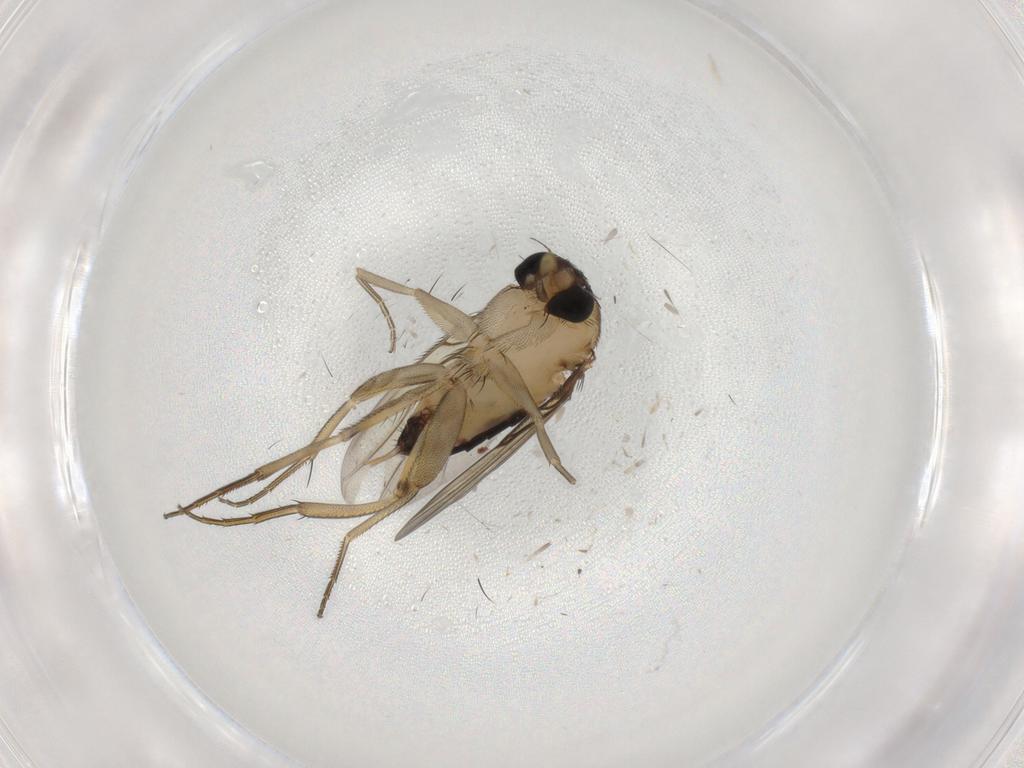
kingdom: Animalia
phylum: Arthropoda
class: Insecta
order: Diptera
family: Phoridae
